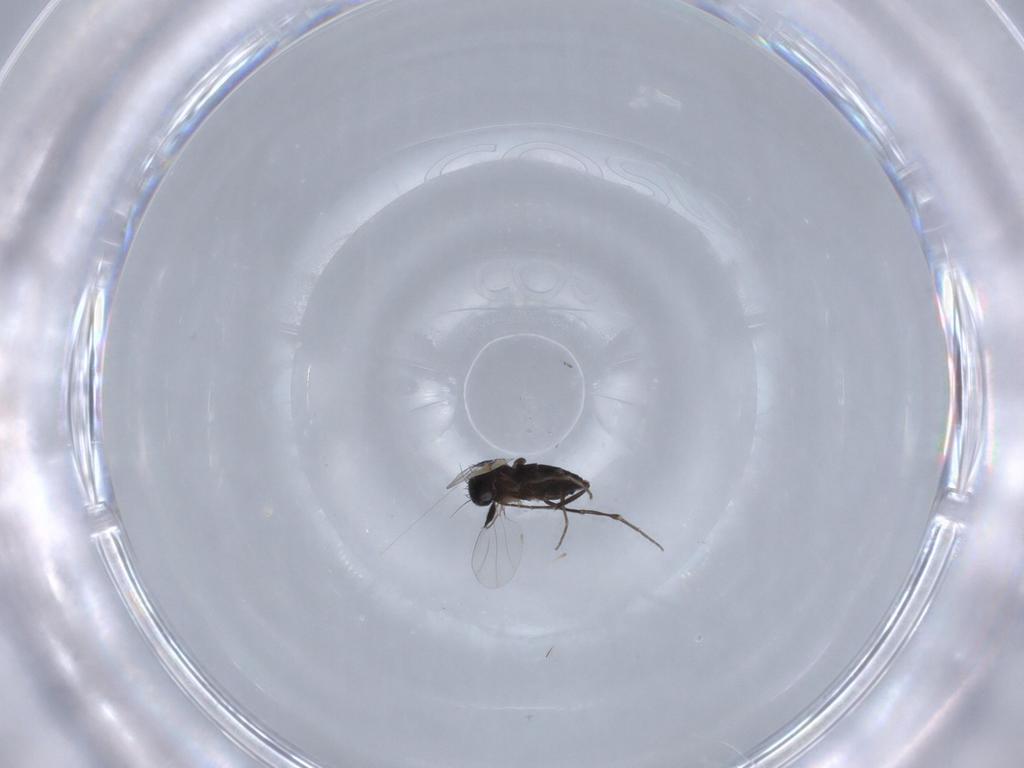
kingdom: Animalia
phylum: Arthropoda
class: Insecta
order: Diptera
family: Phoridae
